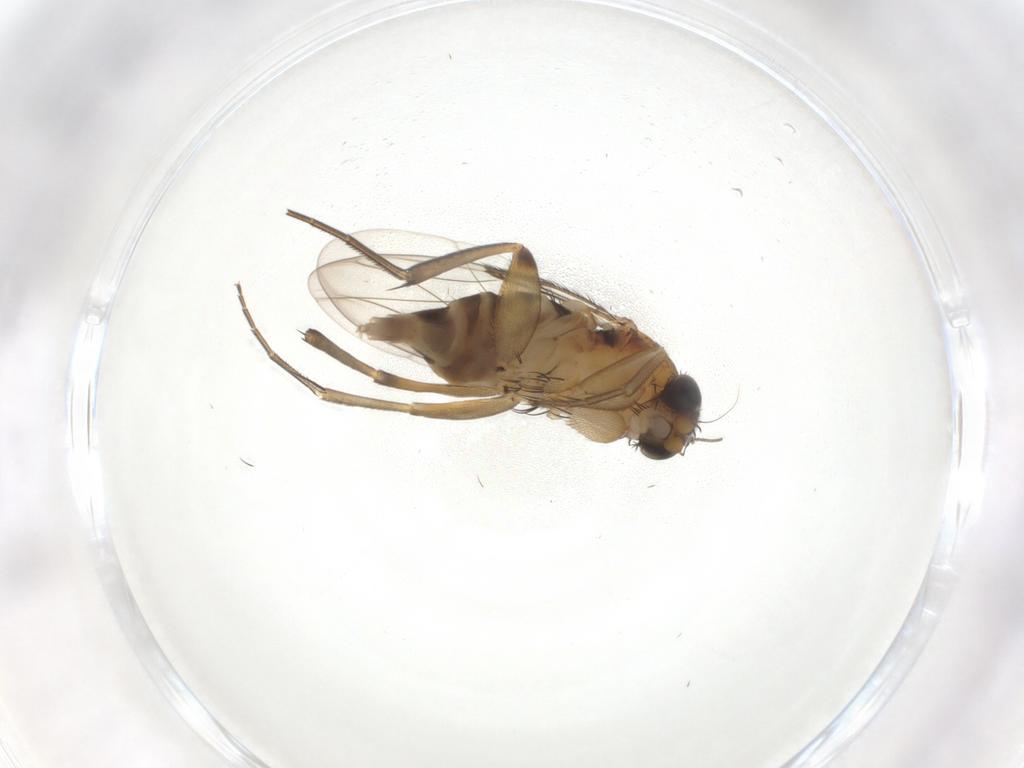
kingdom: Animalia
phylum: Arthropoda
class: Insecta
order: Diptera
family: Phoridae
